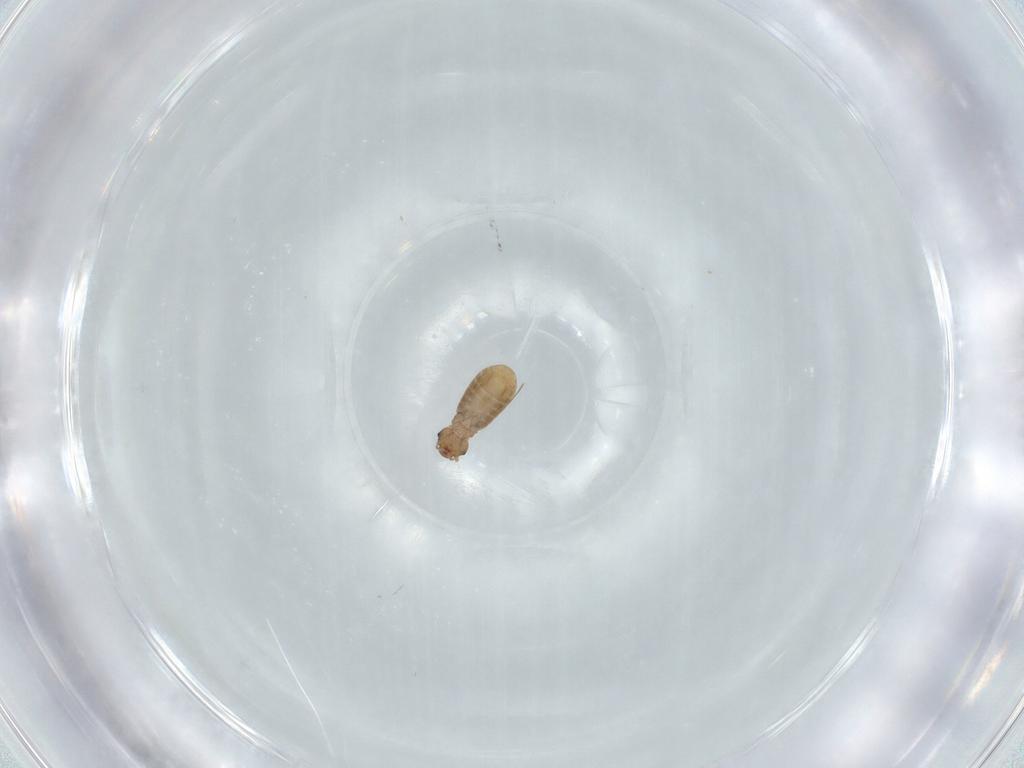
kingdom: Animalia
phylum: Arthropoda
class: Insecta
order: Psocodea
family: Liposcelididae
